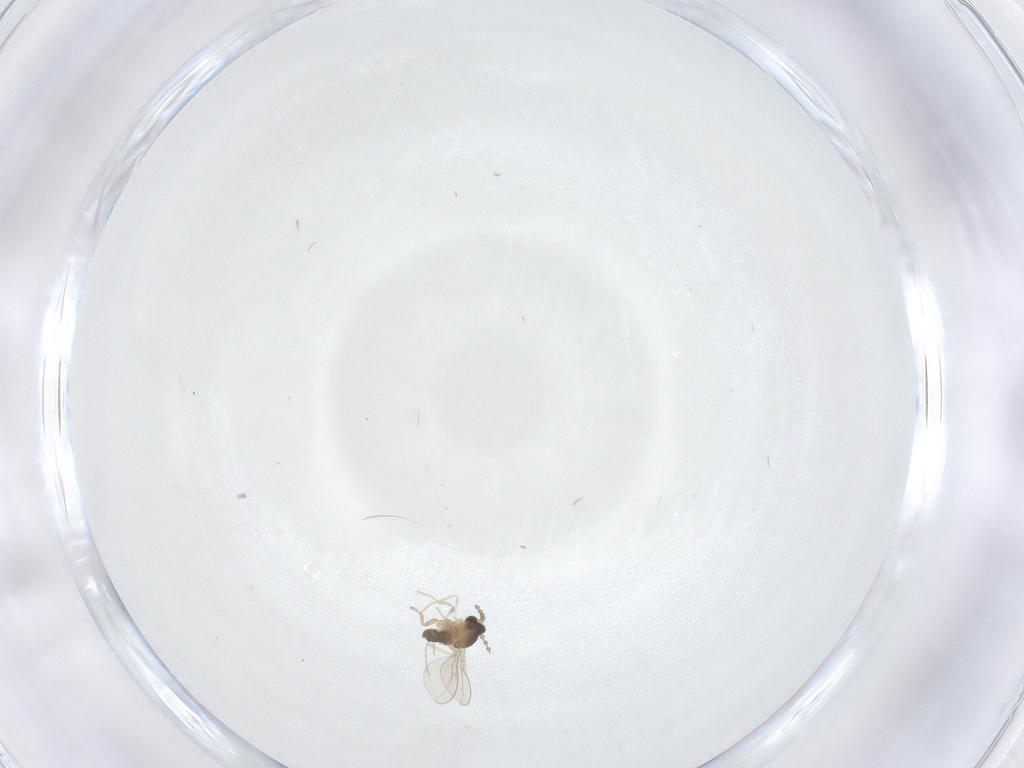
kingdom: Animalia
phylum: Arthropoda
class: Insecta
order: Diptera
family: Cecidomyiidae
